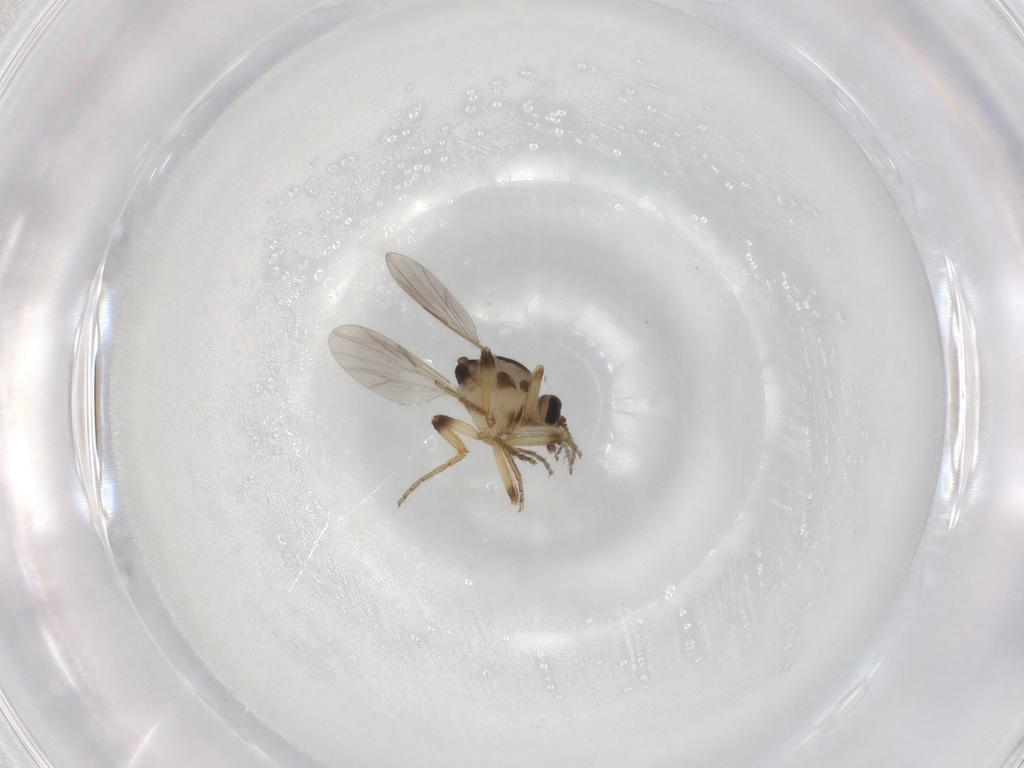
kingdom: Animalia
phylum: Arthropoda
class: Insecta
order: Diptera
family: Ceratopogonidae
